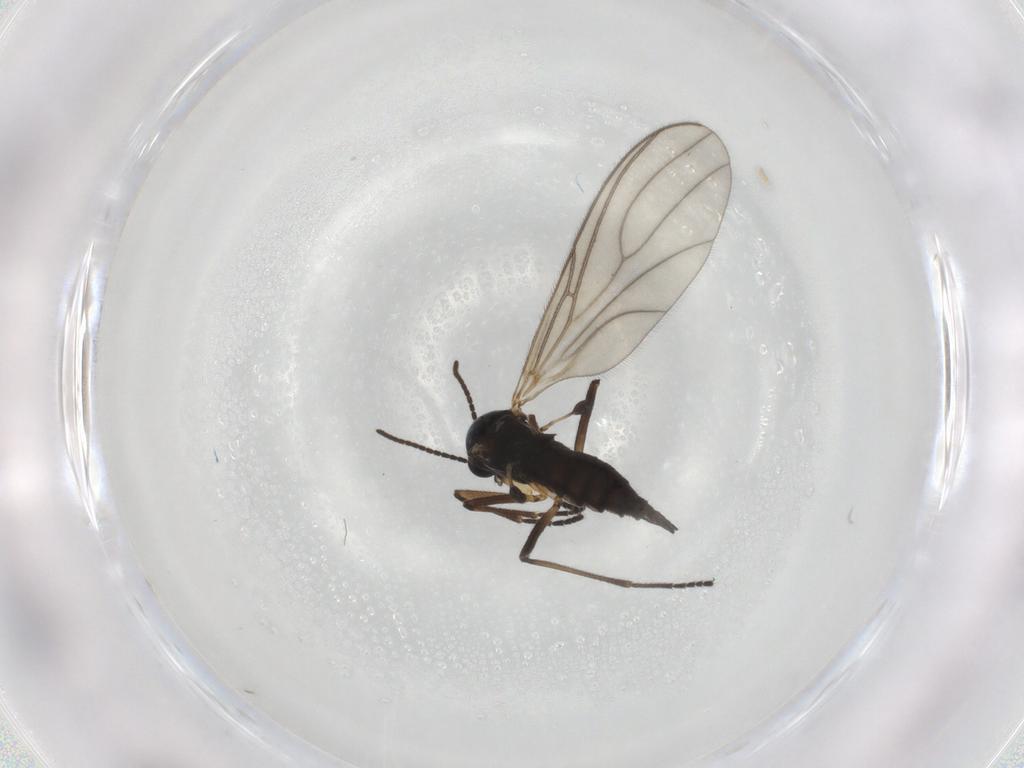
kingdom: Animalia
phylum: Arthropoda
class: Insecta
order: Diptera
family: Sciaridae
